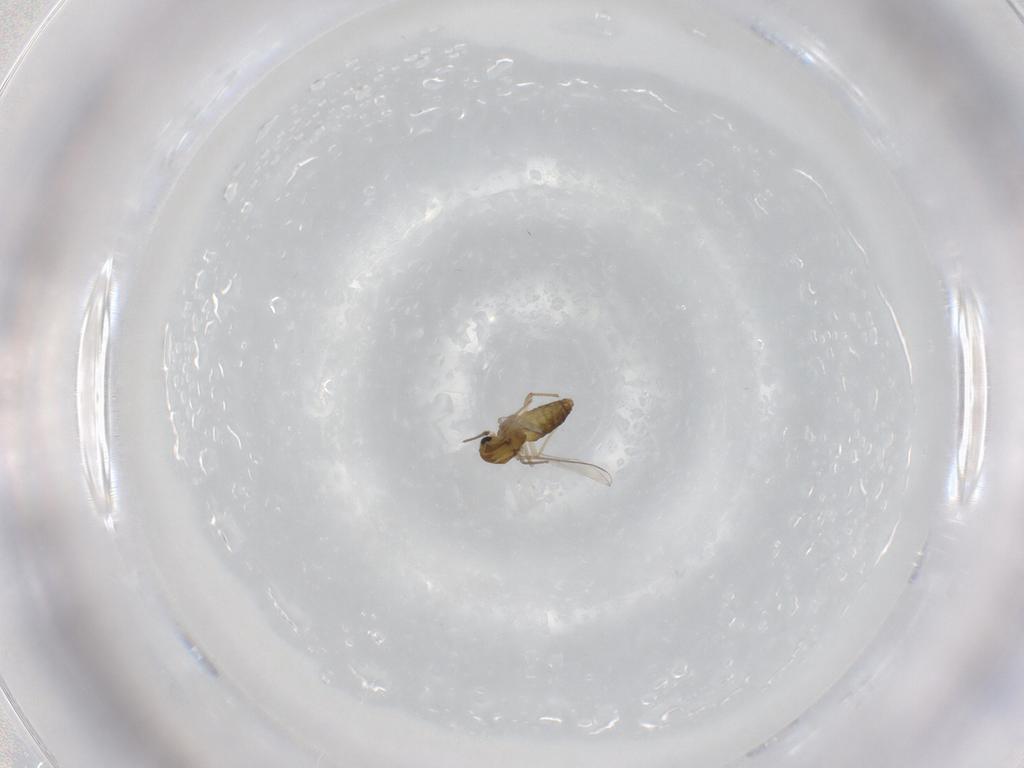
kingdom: Animalia
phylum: Arthropoda
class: Insecta
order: Diptera
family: Chironomidae
